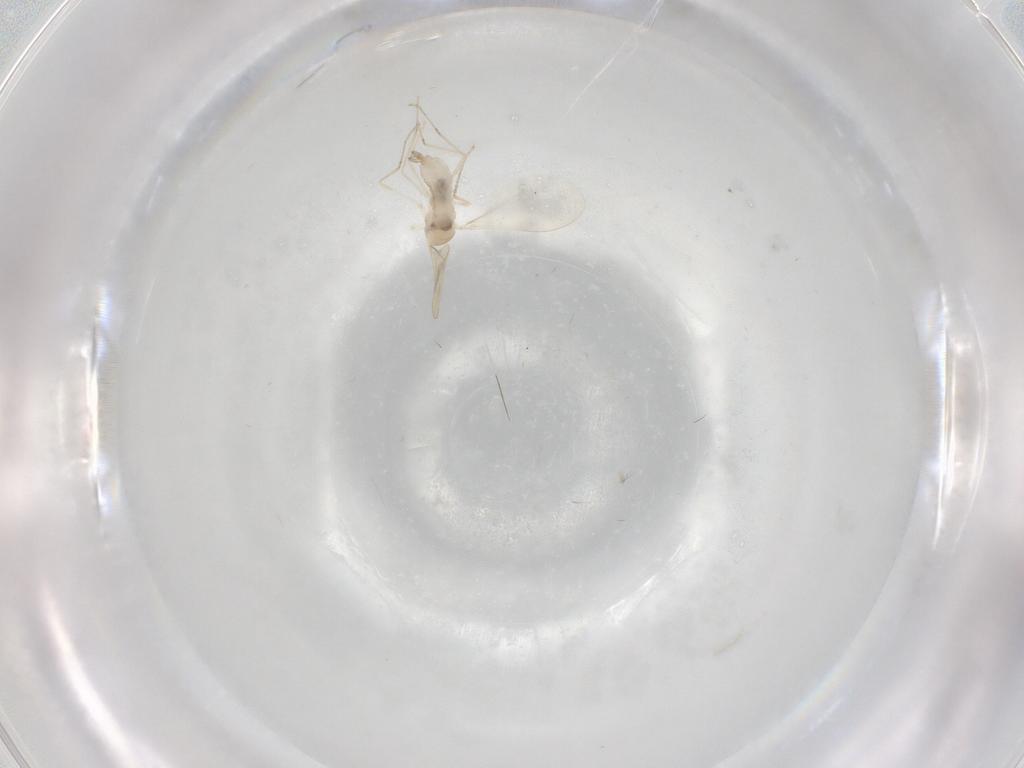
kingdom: Animalia
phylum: Arthropoda
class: Insecta
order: Diptera
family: Cecidomyiidae
